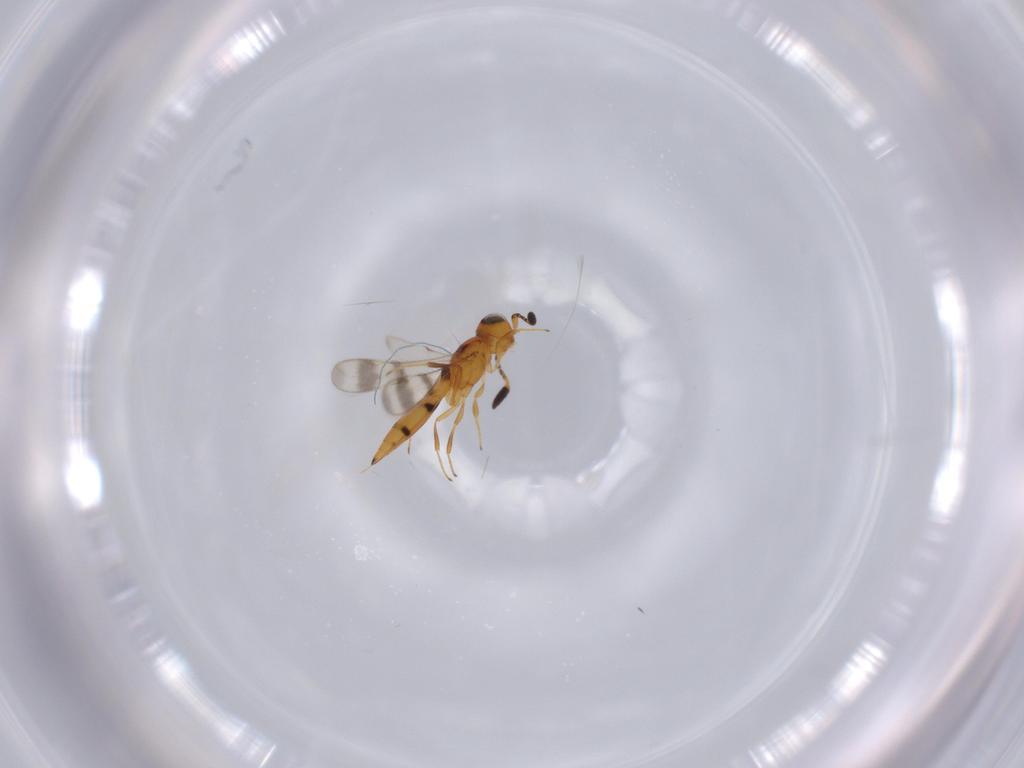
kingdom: Animalia
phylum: Arthropoda
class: Insecta
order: Hymenoptera
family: Scelionidae
